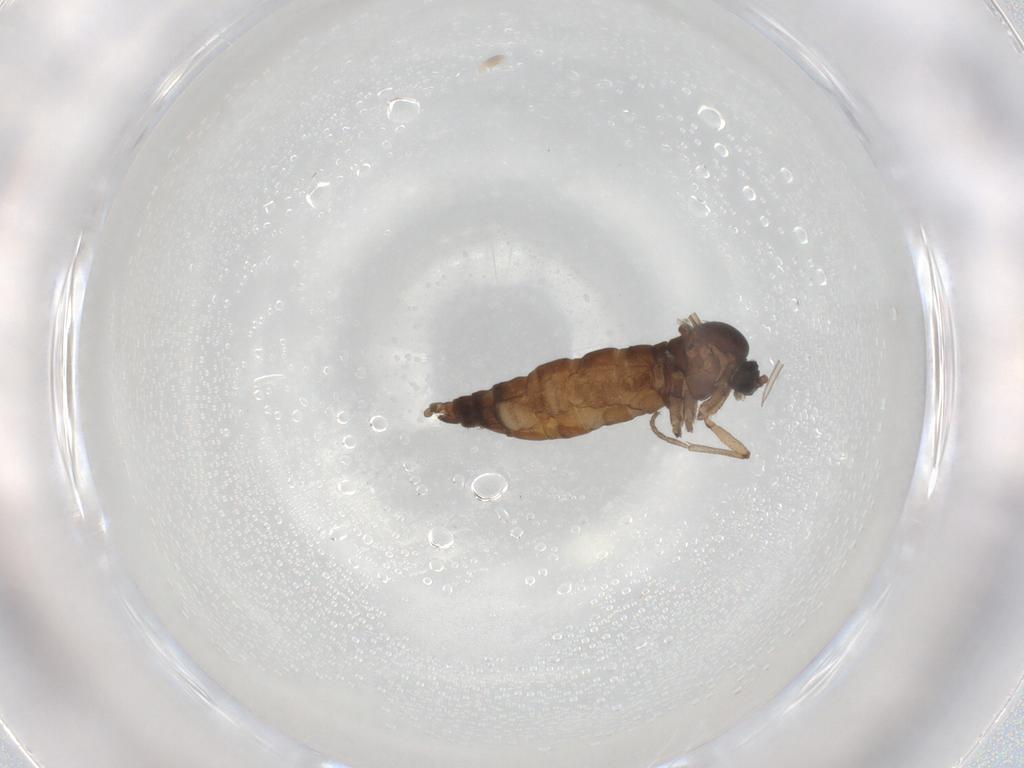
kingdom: Animalia
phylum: Arthropoda
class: Insecta
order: Diptera
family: Sciaridae
